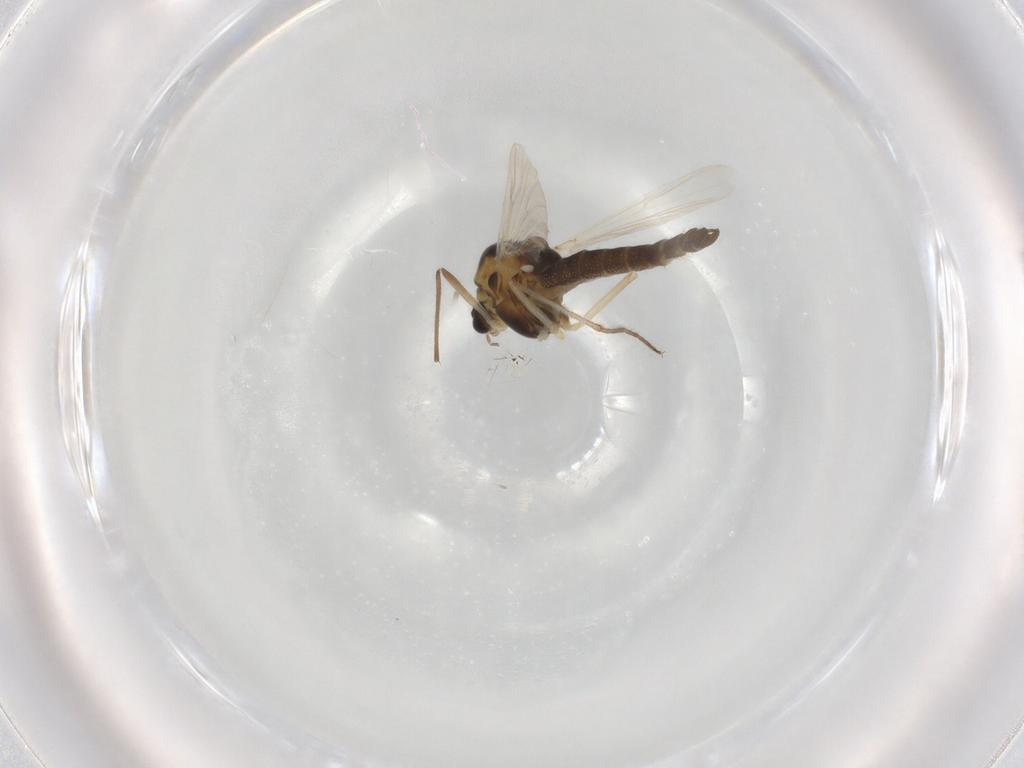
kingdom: Animalia
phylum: Arthropoda
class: Insecta
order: Diptera
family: Chironomidae
